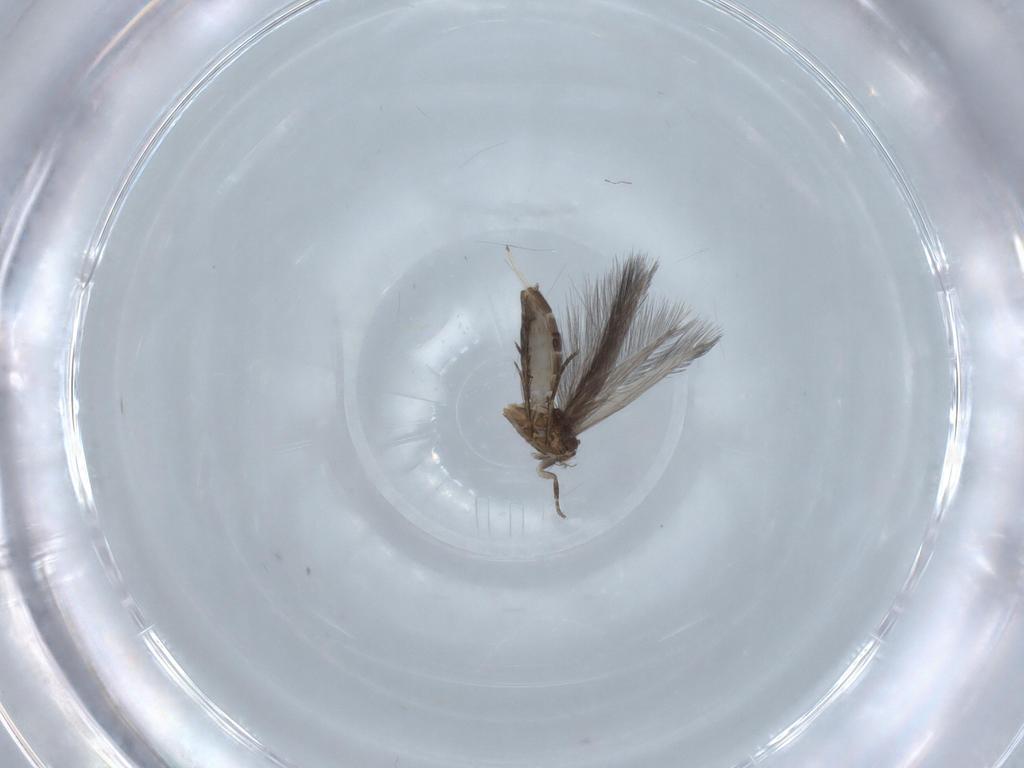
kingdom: Animalia
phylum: Arthropoda
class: Insecta
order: Trichoptera
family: Hydroptilidae
